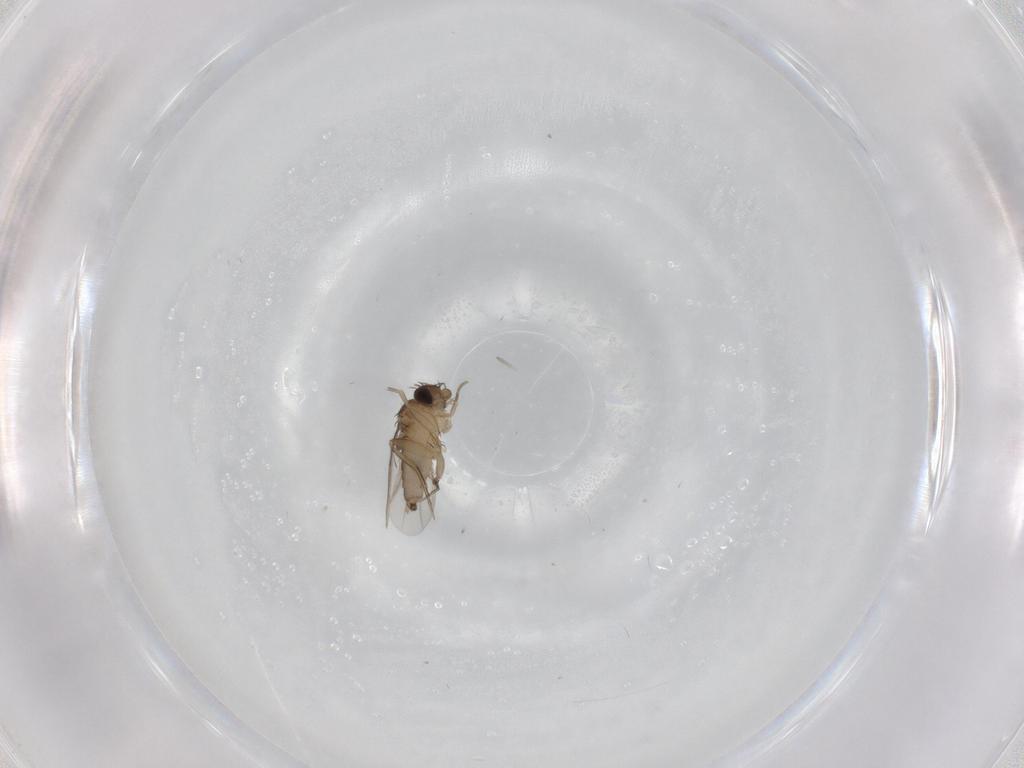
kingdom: Animalia
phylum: Arthropoda
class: Insecta
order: Diptera
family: Phoridae
